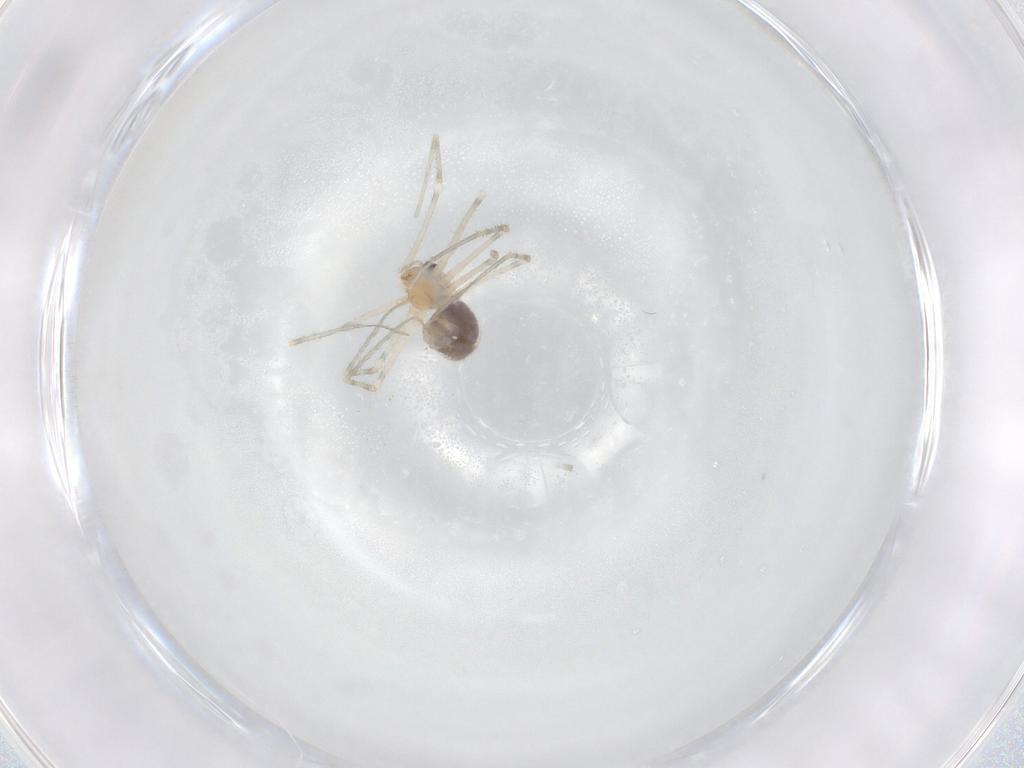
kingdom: Animalia
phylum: Arthropoda
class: Arachnida
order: Araneae
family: Pholcidae
